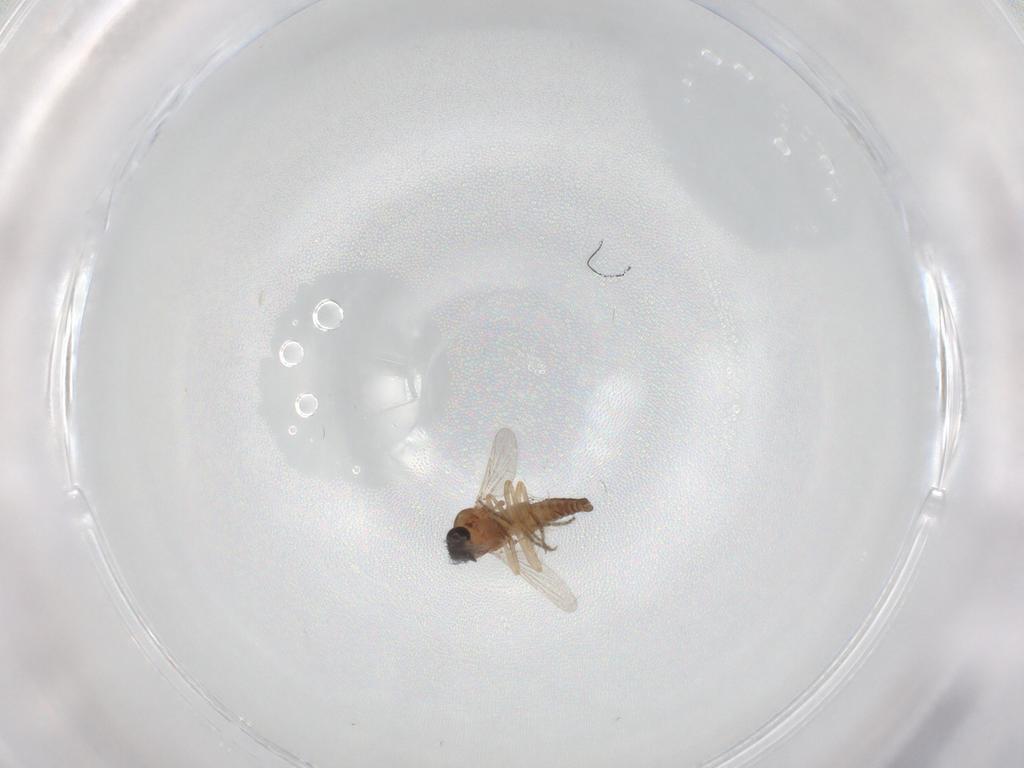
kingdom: Animalia
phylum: Arthropoda
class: Insecta
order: Diptera
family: Ceratopogonidae
